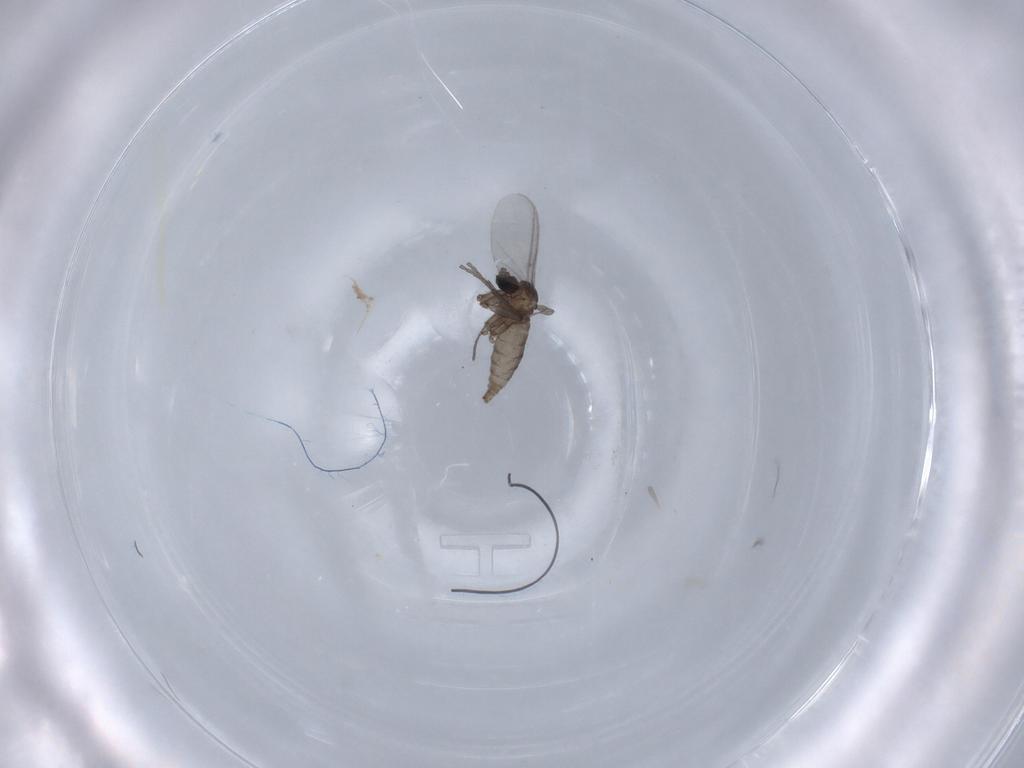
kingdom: Animalia
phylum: Arthropoda
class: Insecta
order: Diptera
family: Sciaridae
